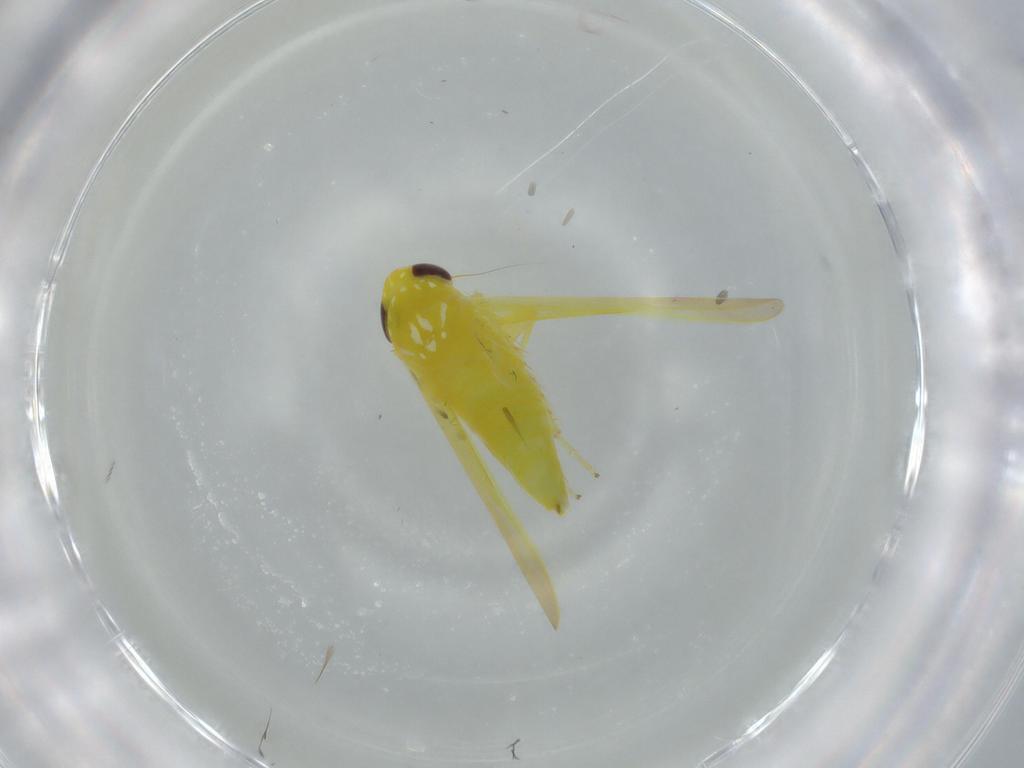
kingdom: Animalia
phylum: Arthropoda
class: Insecta
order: Hemiptera
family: Cicadellidae
